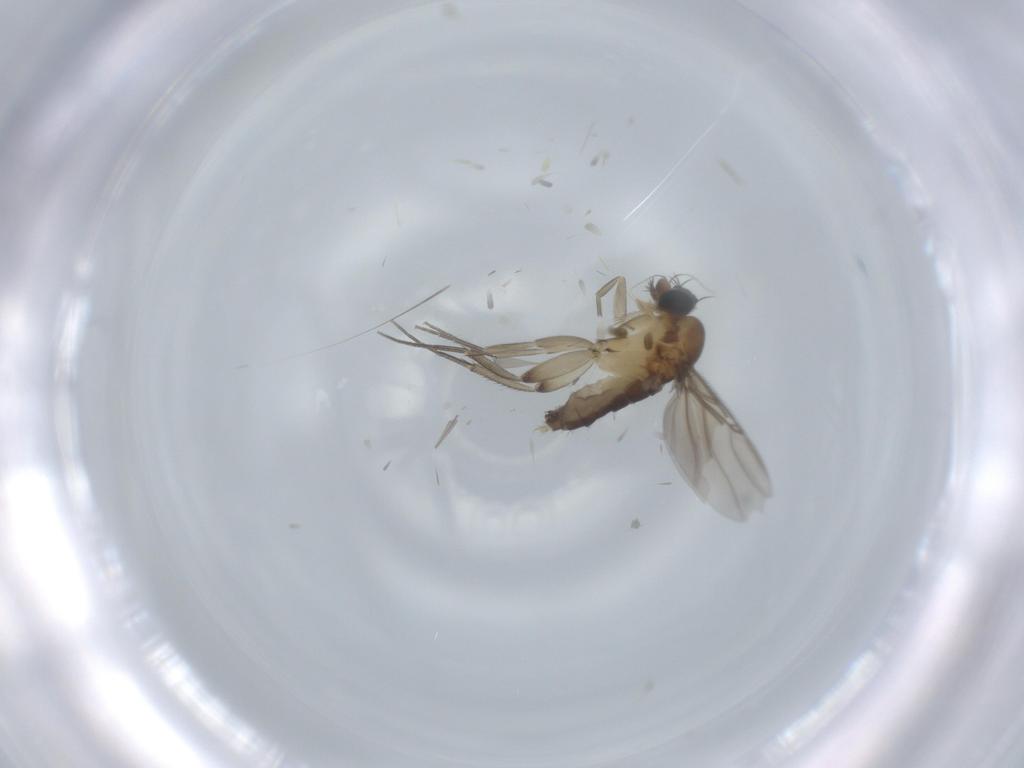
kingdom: Animalia
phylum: Arthropoda
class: Insecta
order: Diptera
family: Phoridae
